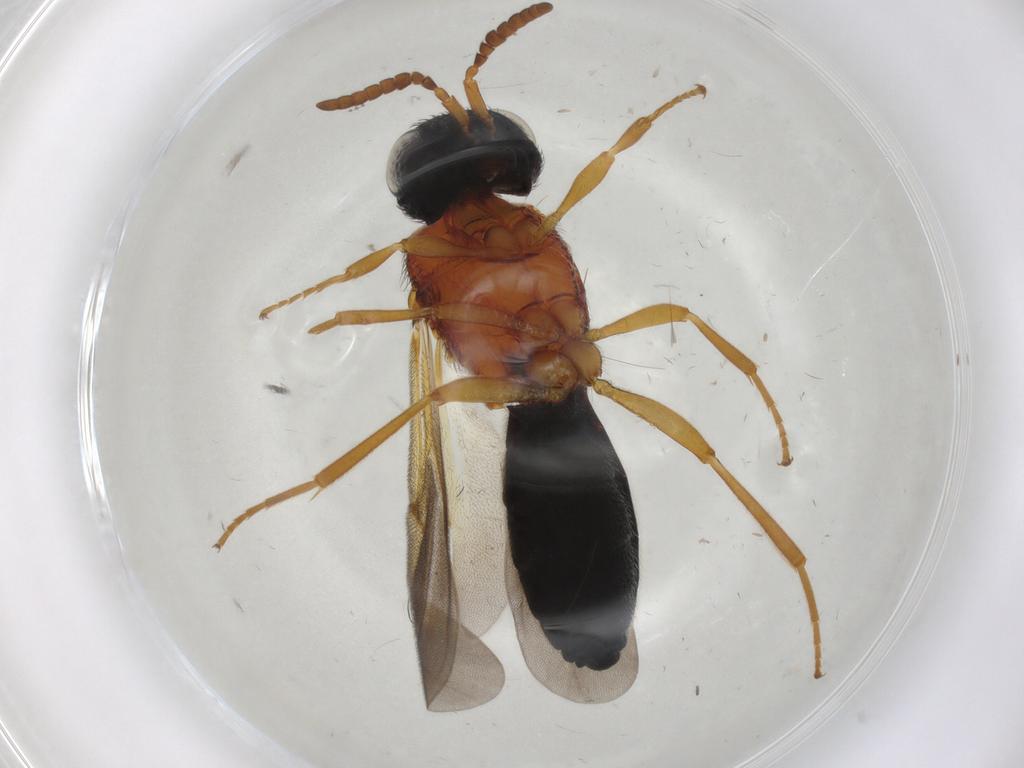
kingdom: Animalia
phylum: Arthropoda
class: Insecta
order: Hymenoptera
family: Scelionidae
